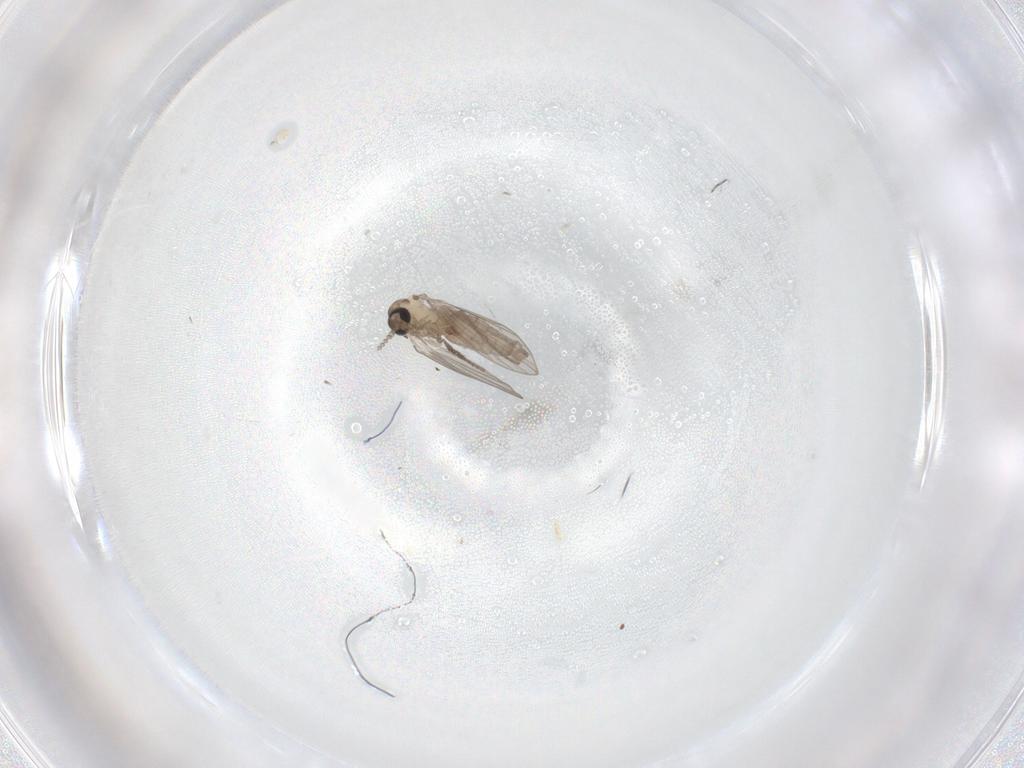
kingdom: Animalia
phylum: Arthropoda
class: Insecta
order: Diptera
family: Psychodidae
